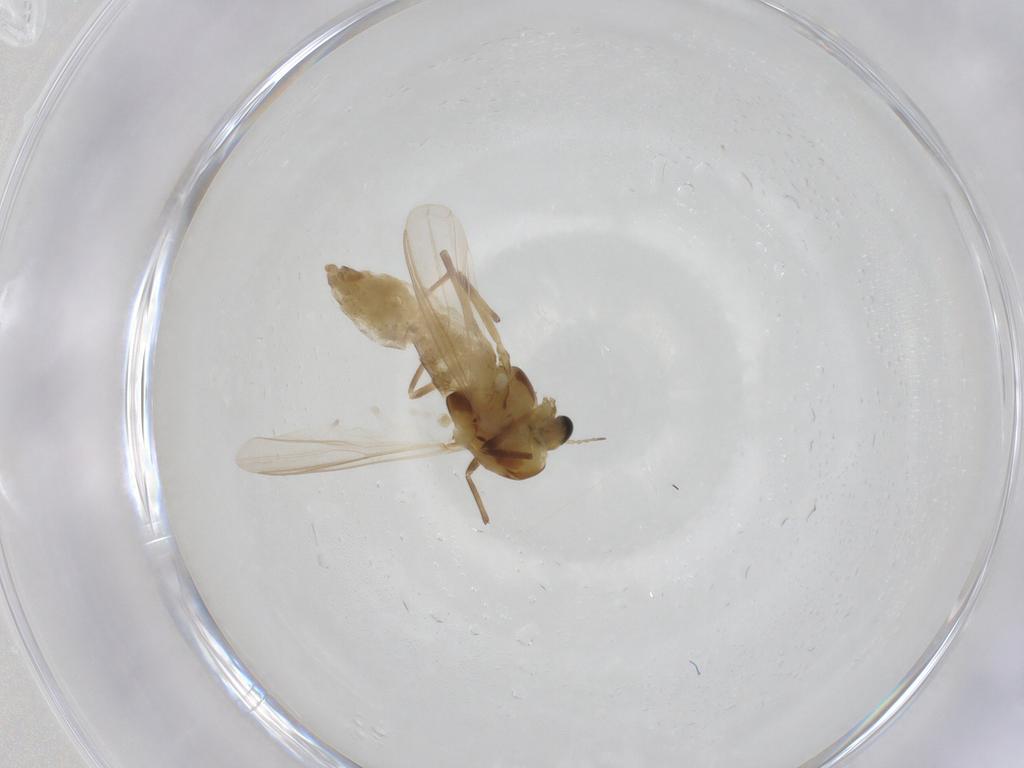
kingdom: Animalia
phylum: Arthropoda
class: Insecta
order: Diptera
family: Chironomidae
